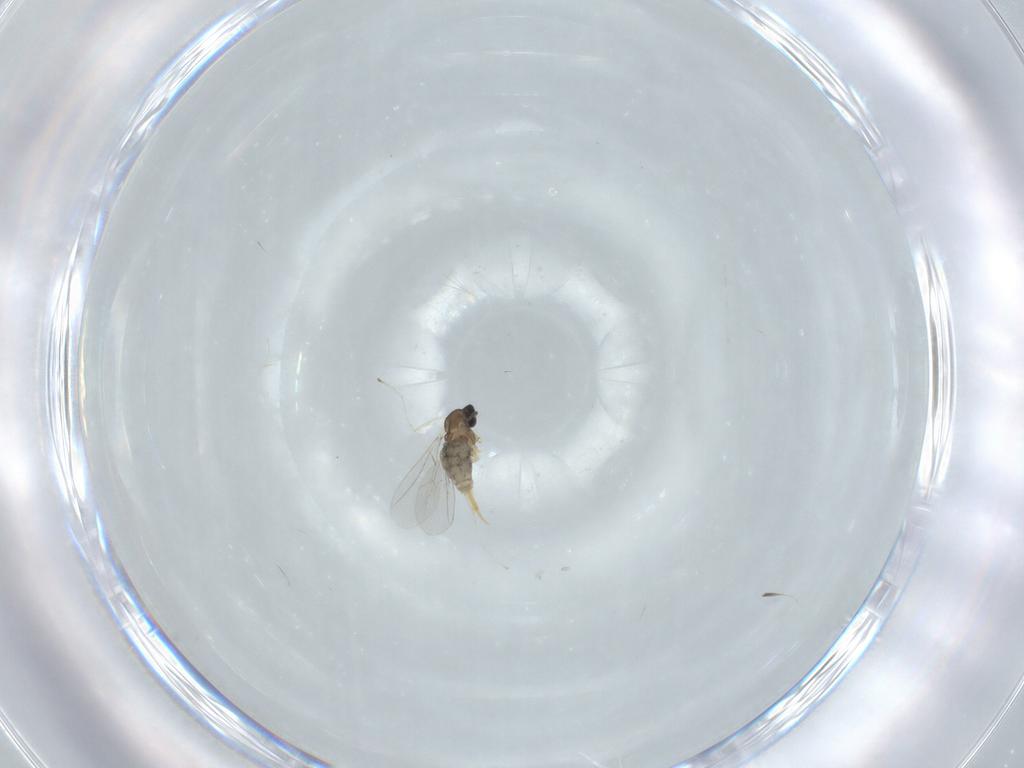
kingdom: Animalia
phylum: Arthropoda
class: Insecta
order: Diptera
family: Cecidomyiidae
